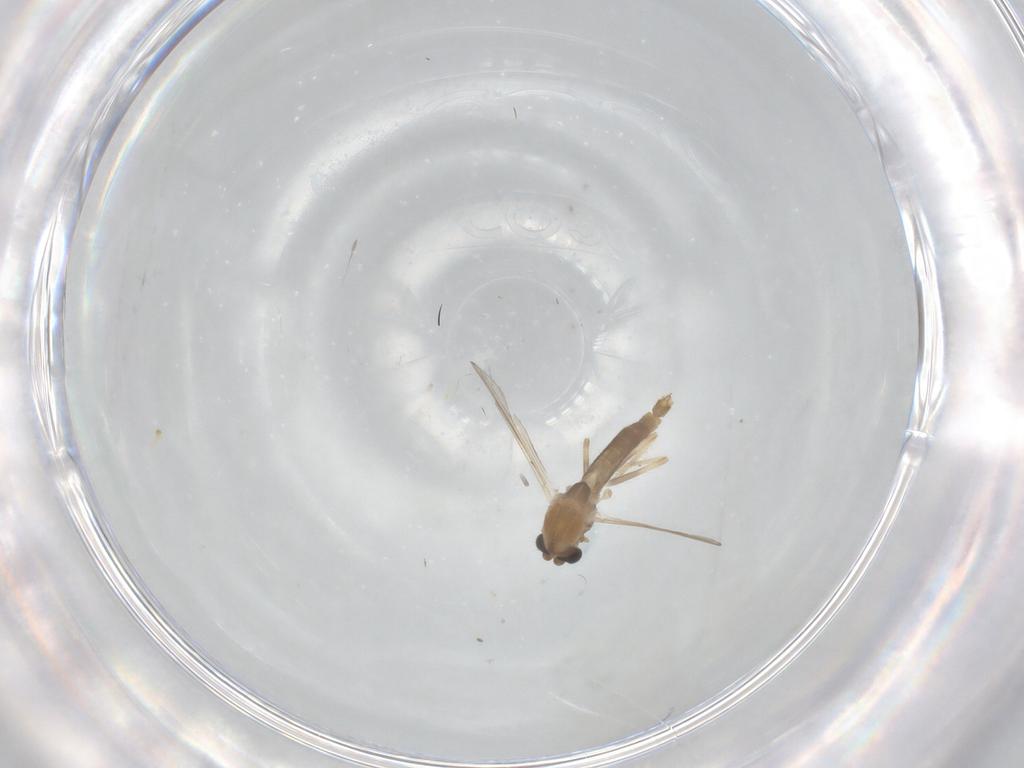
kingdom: Animalia
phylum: Arthropoda
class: Insecta
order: Diptera
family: Chironomidae
